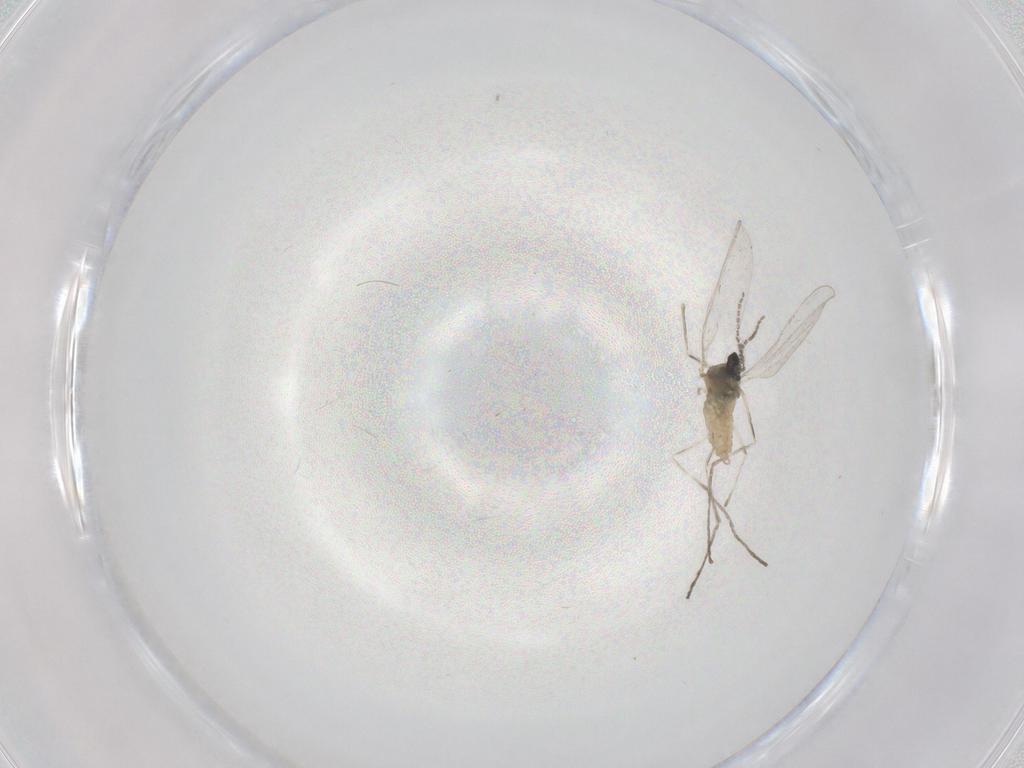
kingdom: Animalia
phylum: Arthropoda
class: Insecta
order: Diptera
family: Cecidomyiidae
